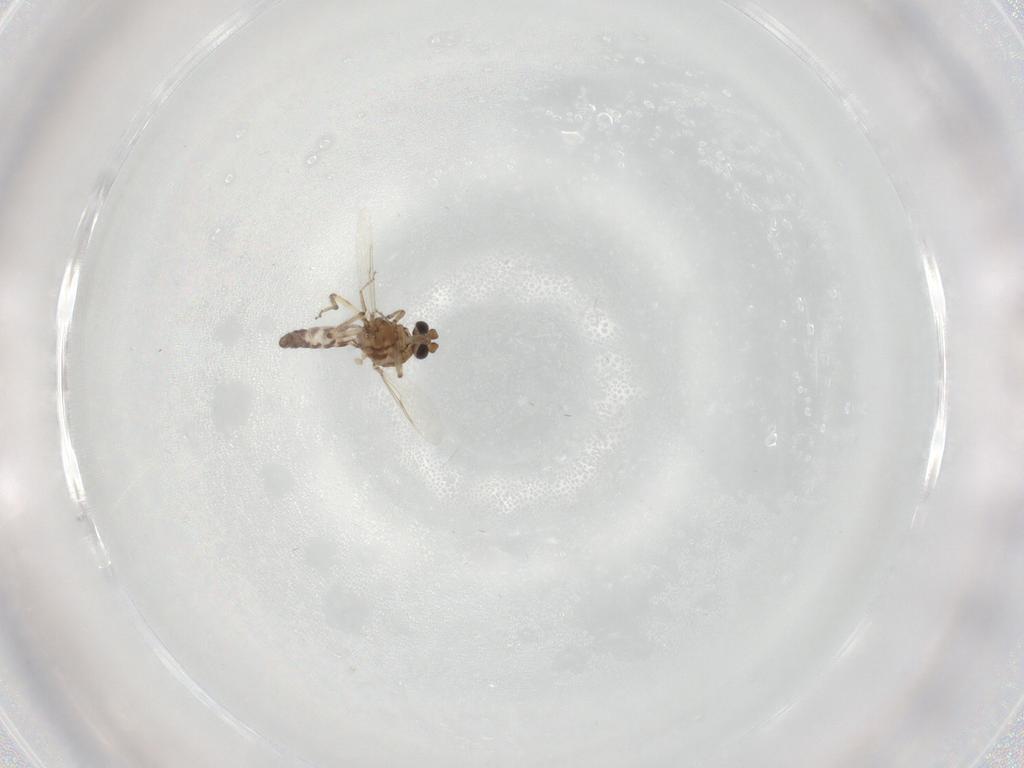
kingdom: Animalia
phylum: Arthropoda
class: Insecta
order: Diptera
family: Ceratopogonidae
